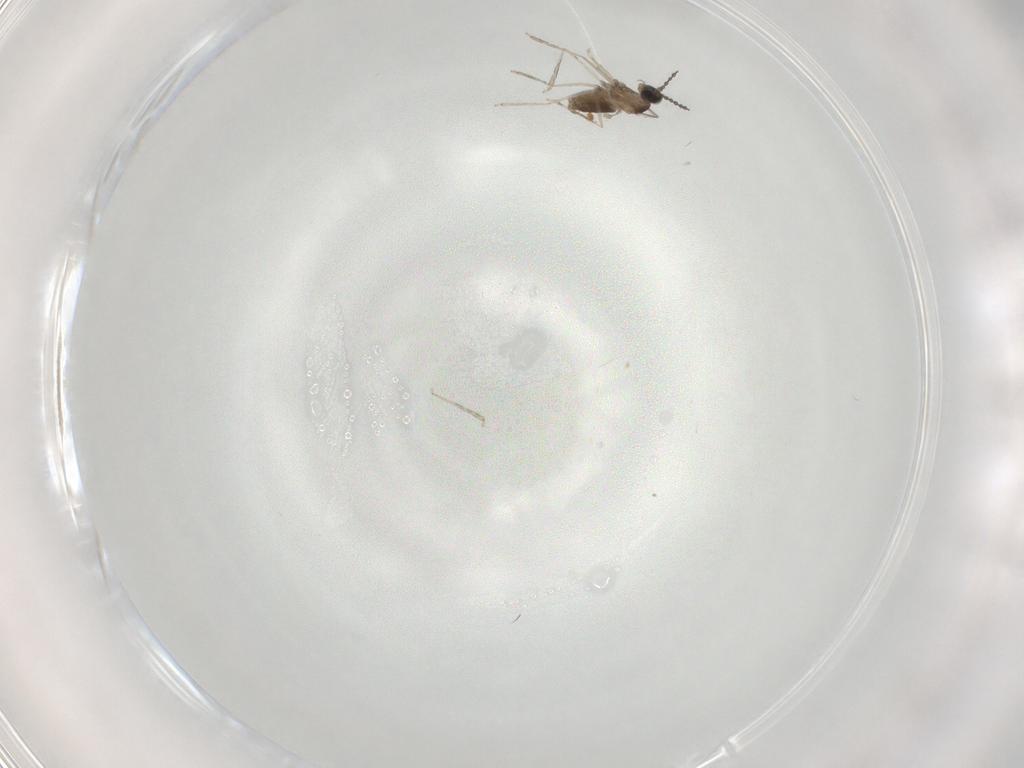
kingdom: Animalia
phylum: Arthropoda
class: Insecta
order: Diptera
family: Cecidomyiidae
